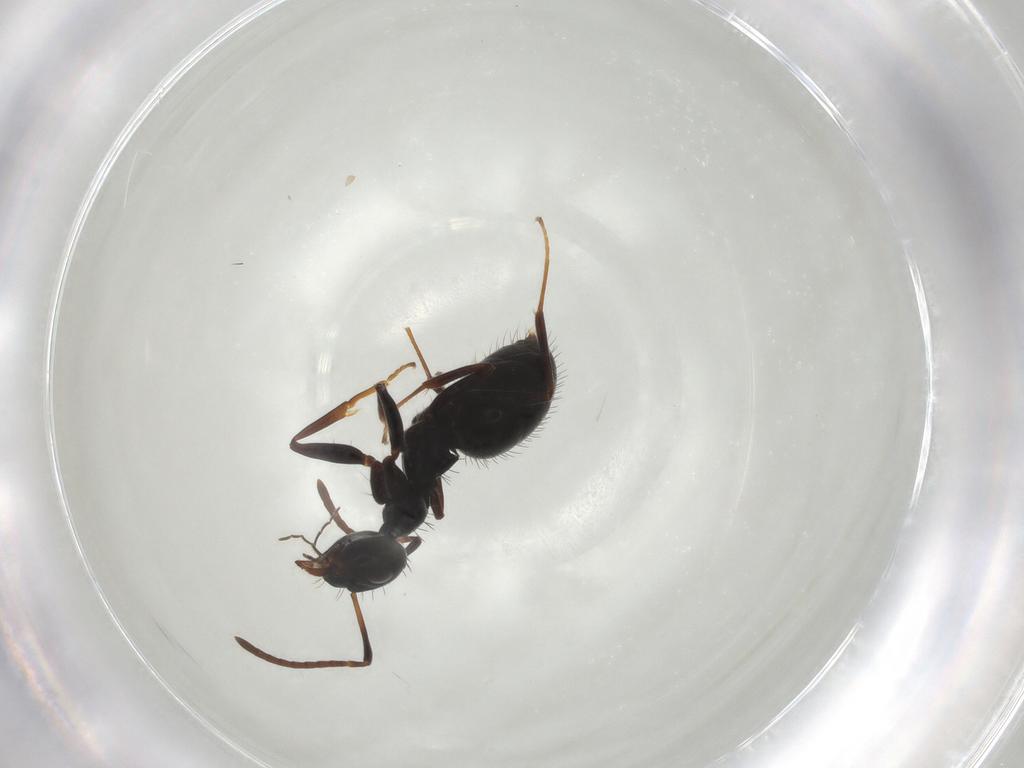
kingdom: Animalia
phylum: Arthropoda
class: Insecta
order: Hymenoptera
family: Formicidae
